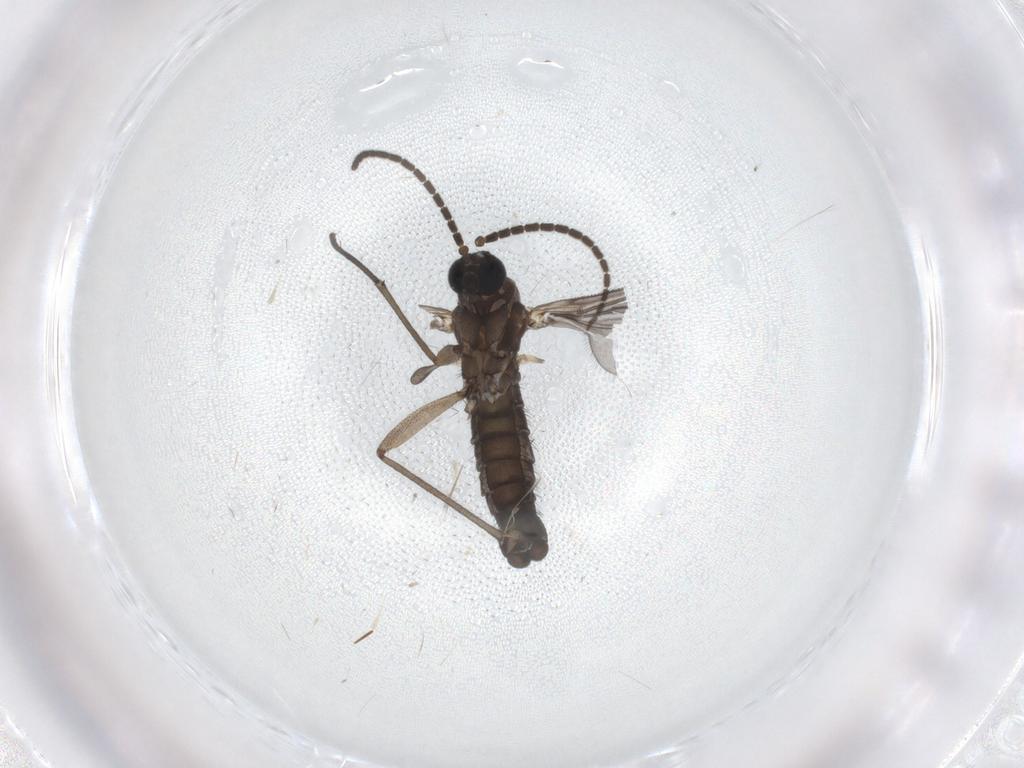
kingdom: Animalia
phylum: Arthropoda
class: Insecta
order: Diptera
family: Sciaridae
